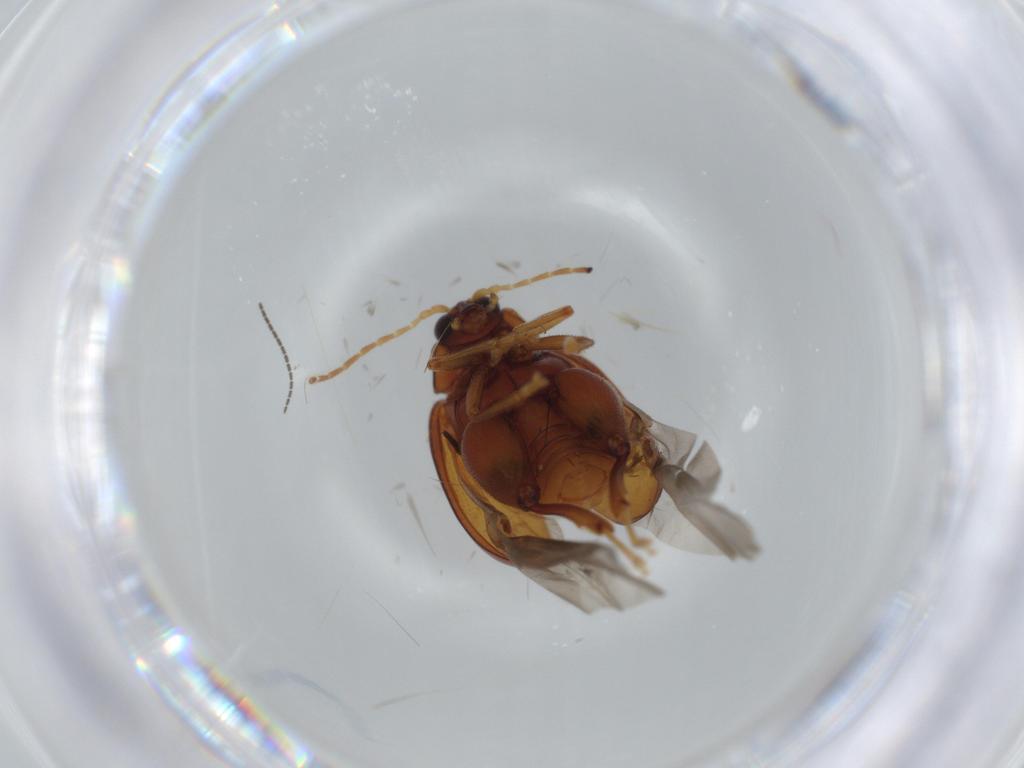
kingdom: Animalia
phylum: Arthropoda
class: Insecta
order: Coleoptera
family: Chrysomelidae
